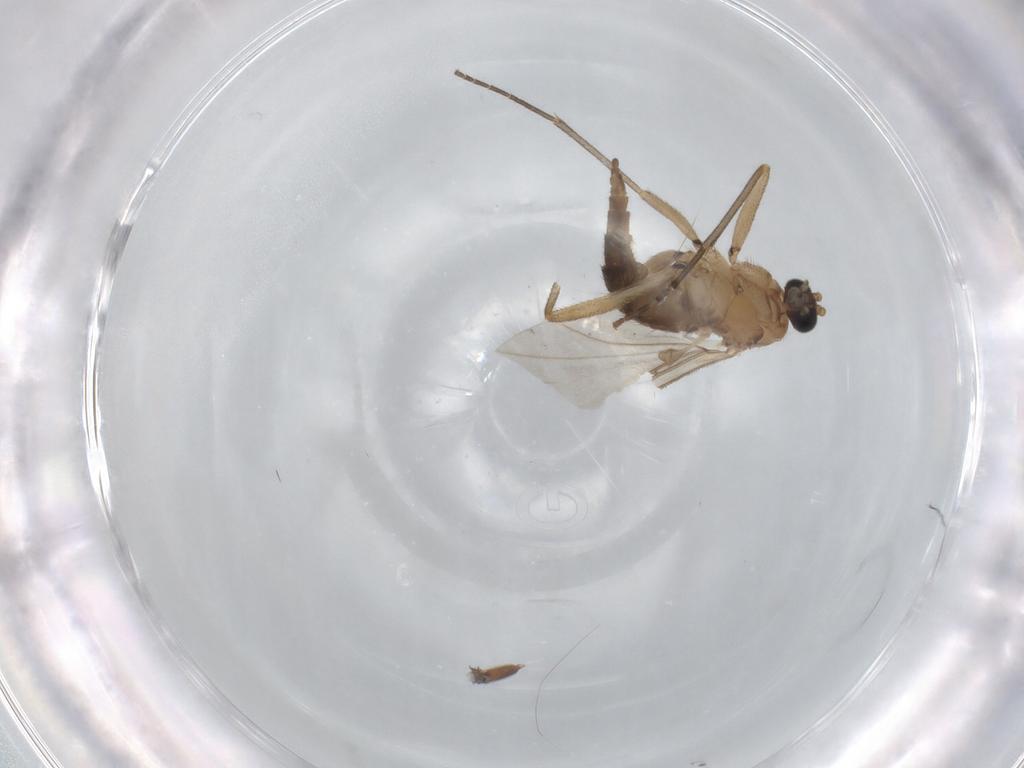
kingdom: Animalia
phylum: Arthropoda
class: Insecta
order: Diptera
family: Sciaridae
